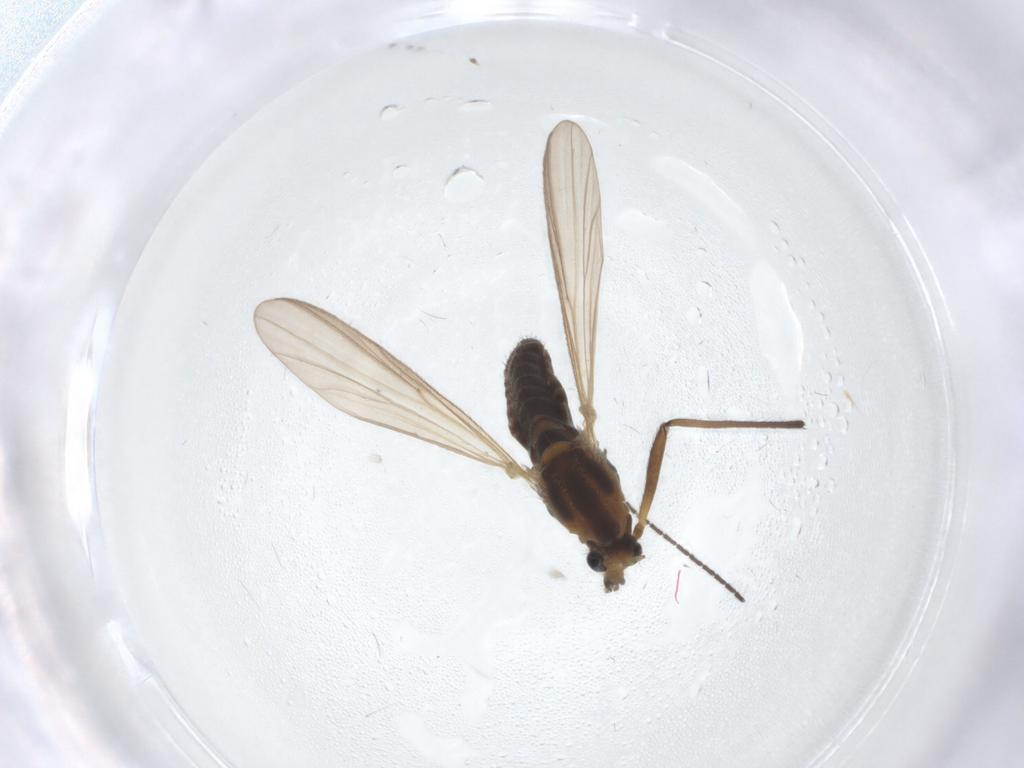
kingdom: Animalia
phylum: Arthropoda
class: Insecta
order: Diptera
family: Chironomidae
